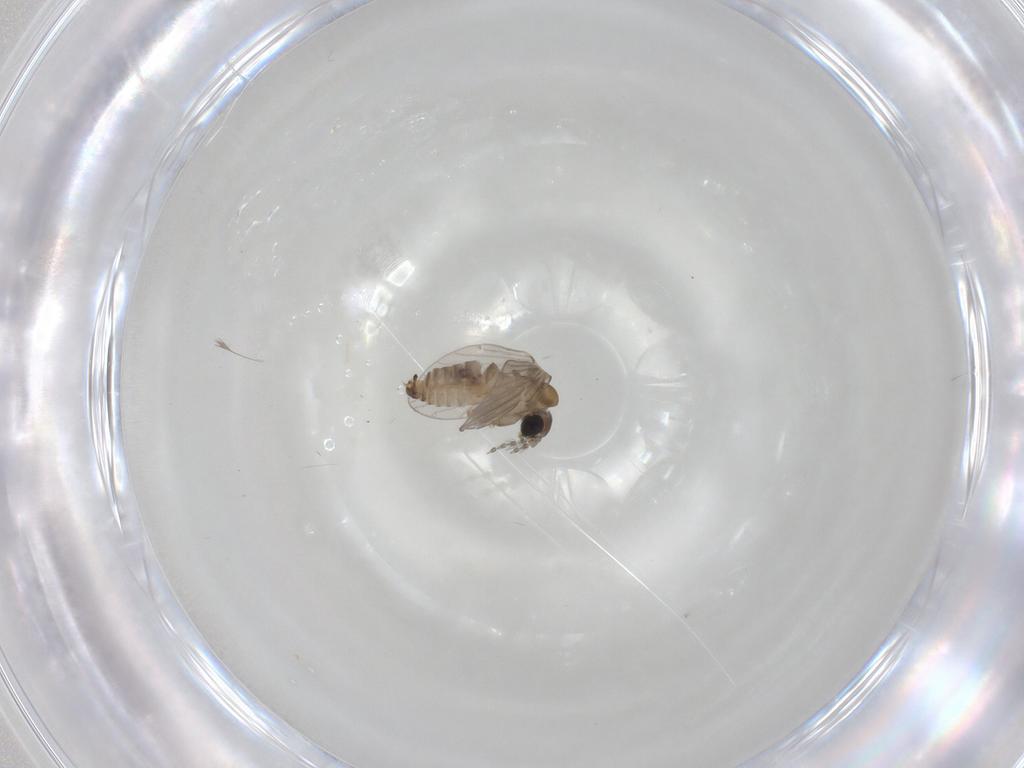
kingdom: Animalia
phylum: Arthropoda
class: Insecta
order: Diptera
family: Psychodidae
